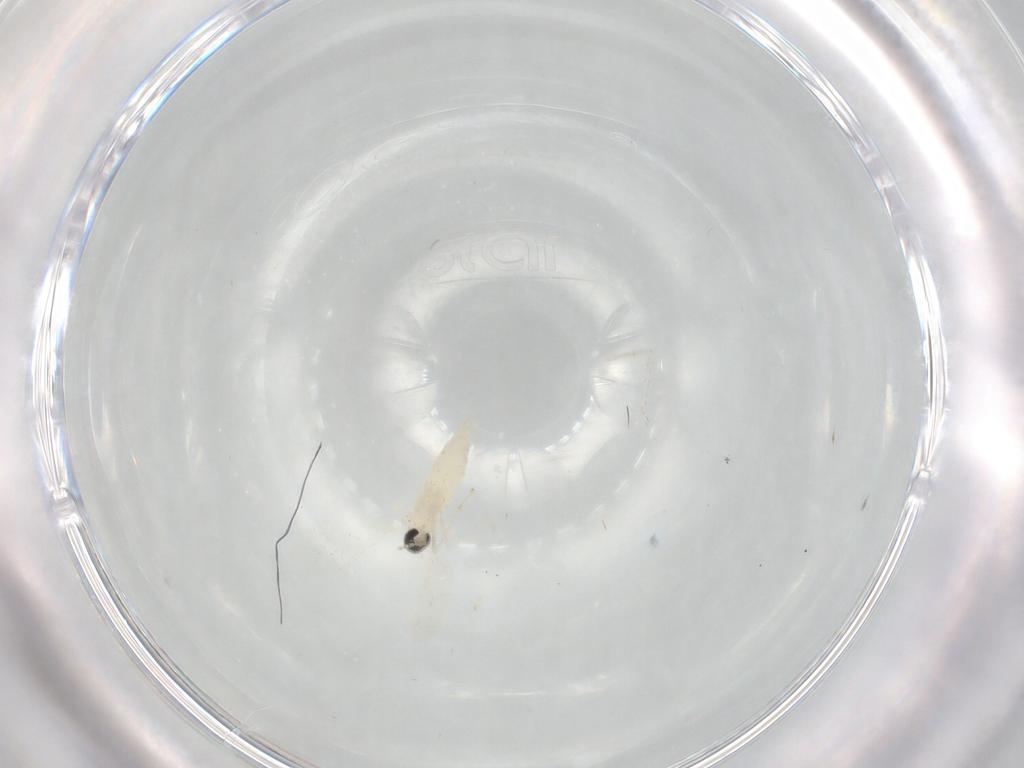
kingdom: Animalia
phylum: Arthropoda
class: Insecta
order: Diptera
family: Cecidomyiidae
